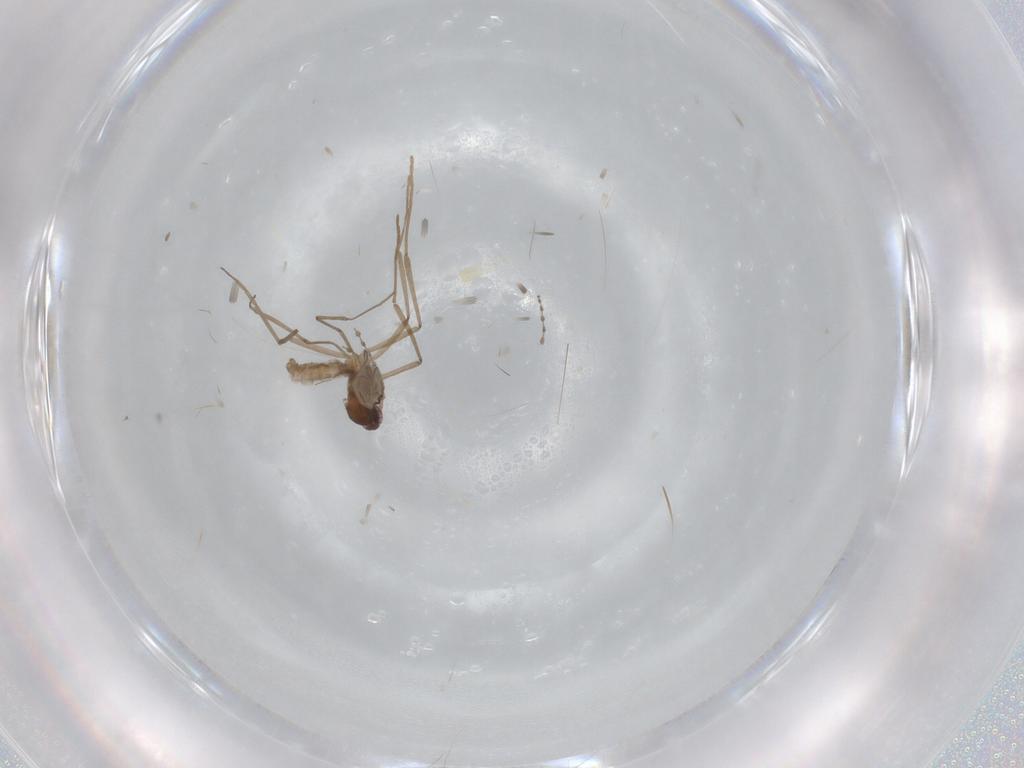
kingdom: Animalia
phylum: Arthropoda
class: Insecta
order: Diptera
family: Cecidomyiidae
